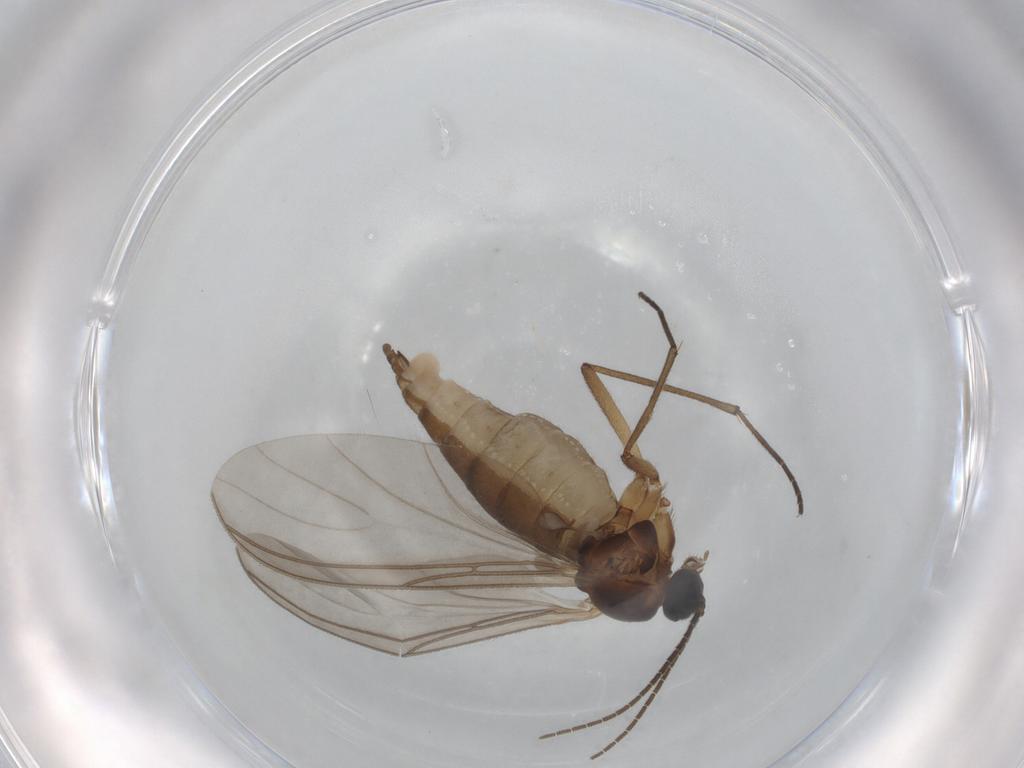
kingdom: Animalia
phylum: Arthropoda
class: Insecta
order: Diptera
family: Sciaridae
